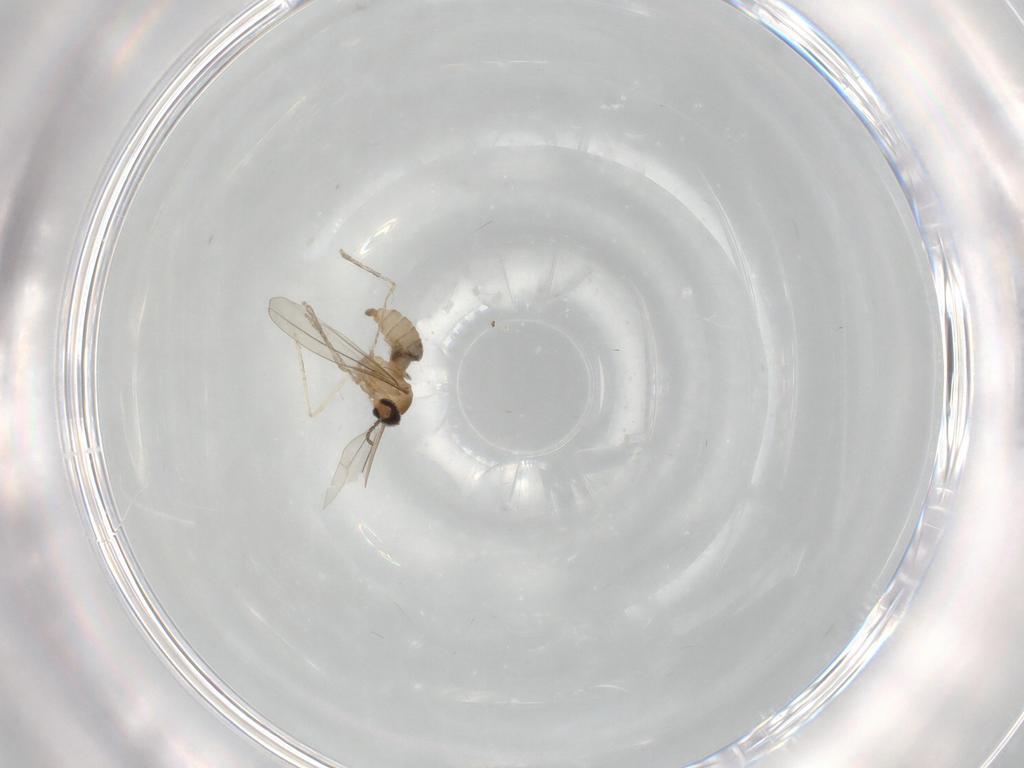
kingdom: Animalia
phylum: Arthropoda
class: Insecta
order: Diptera
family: Cecidomyiidae
